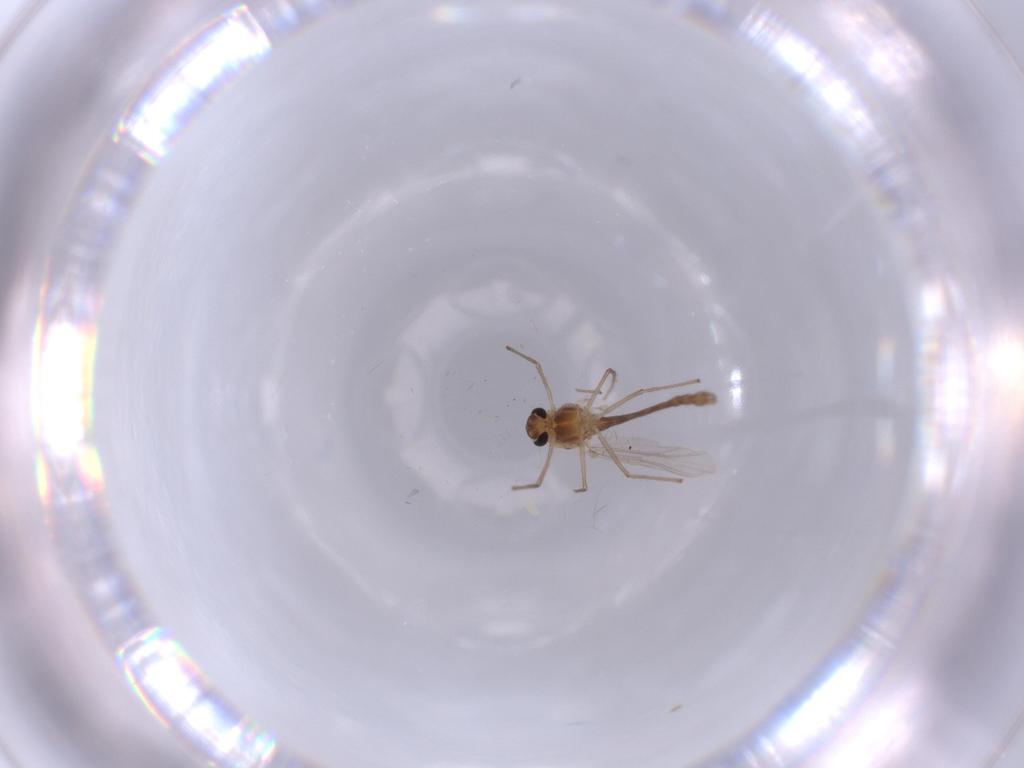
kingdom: Animalia
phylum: Arthropoda
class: Insecta
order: Diptera
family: Chironomidae
